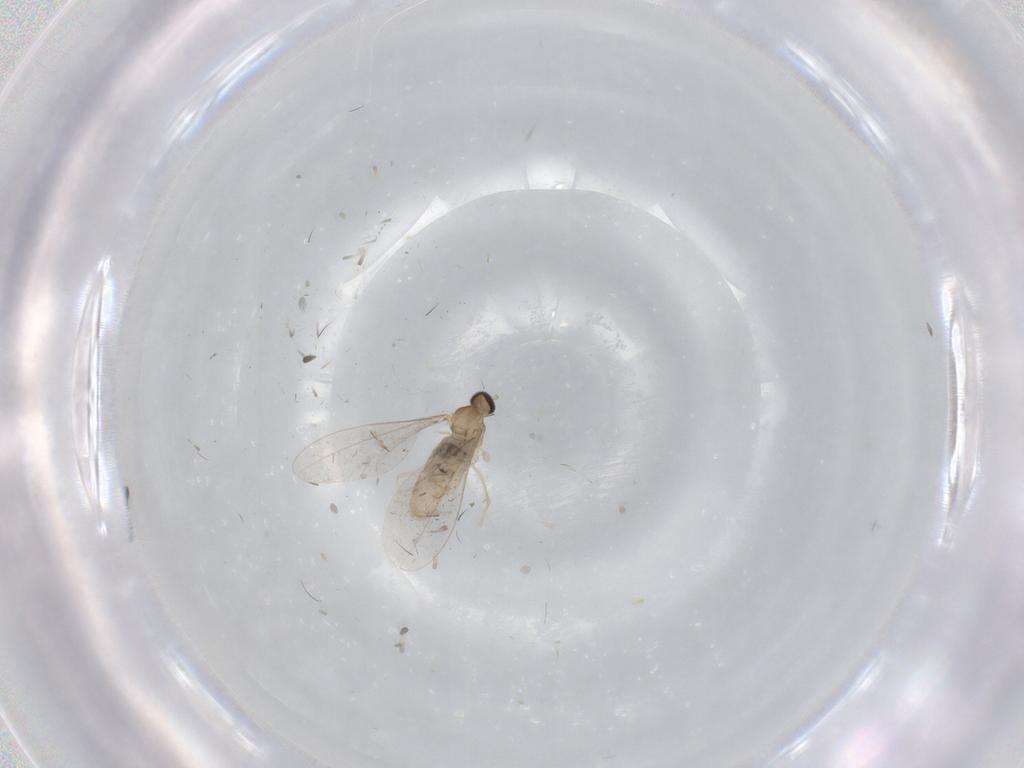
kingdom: Animalia
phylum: Arthropoda
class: Insecta
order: Diptera
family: Cecidomyiidae
